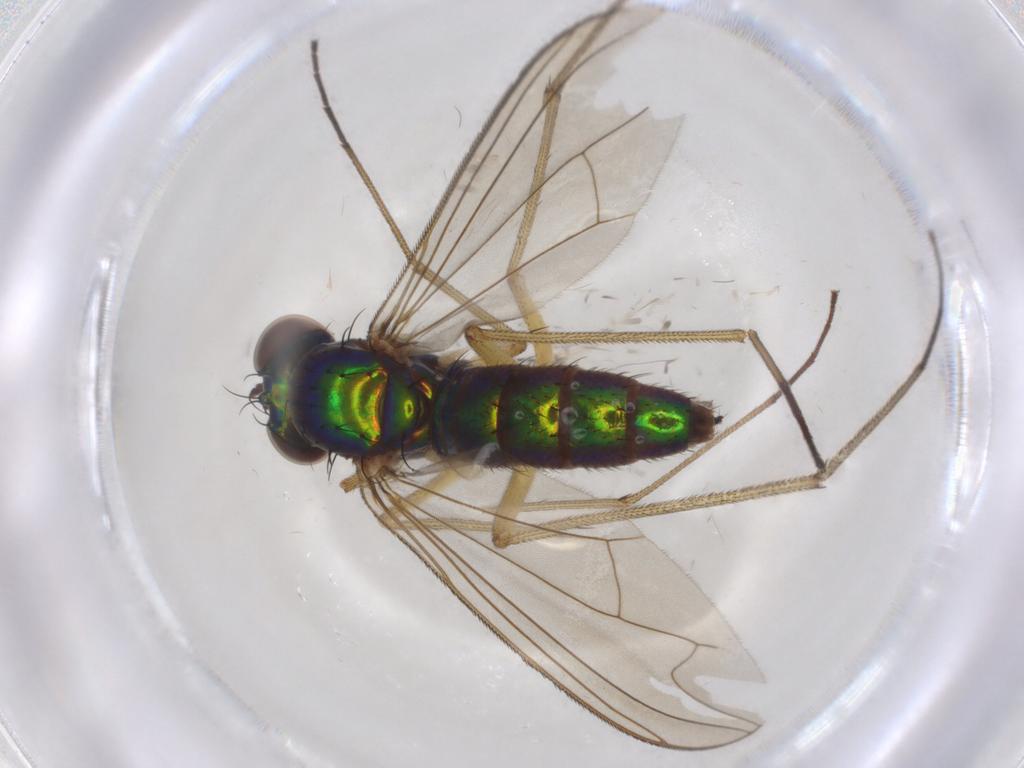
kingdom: Animalia
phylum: Arthropoda
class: Insecta
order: Diptera
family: Dolichopodidae
